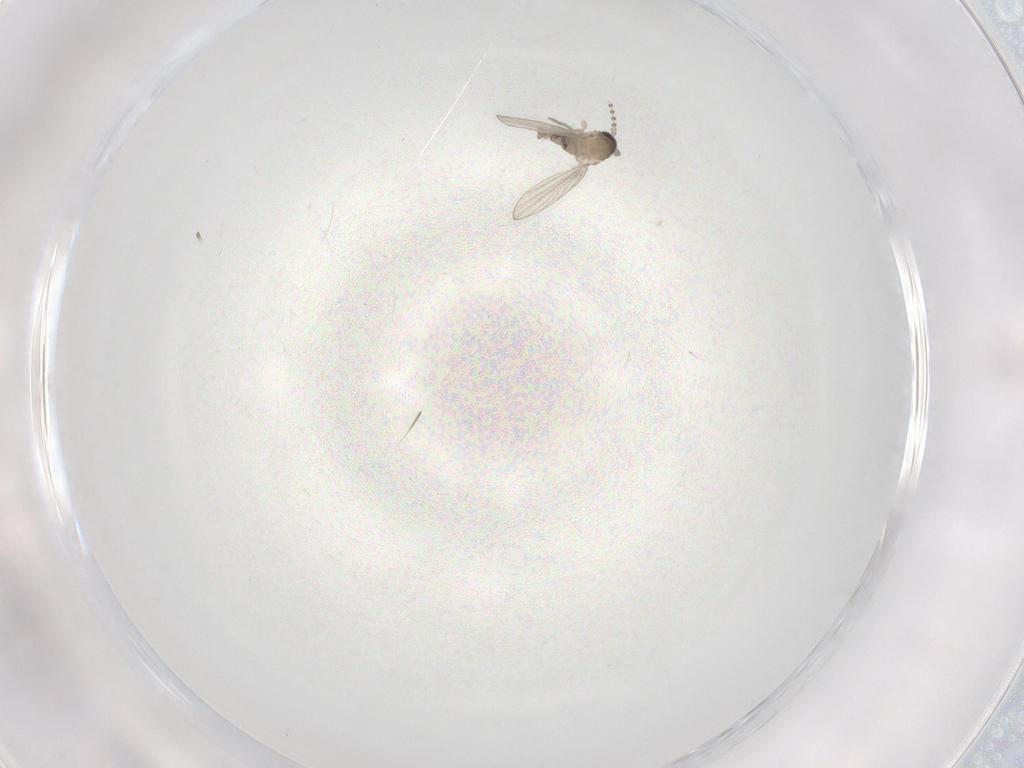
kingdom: Animalia
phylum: Arthropoda
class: Insecta
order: Diptera
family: Psychodidae
